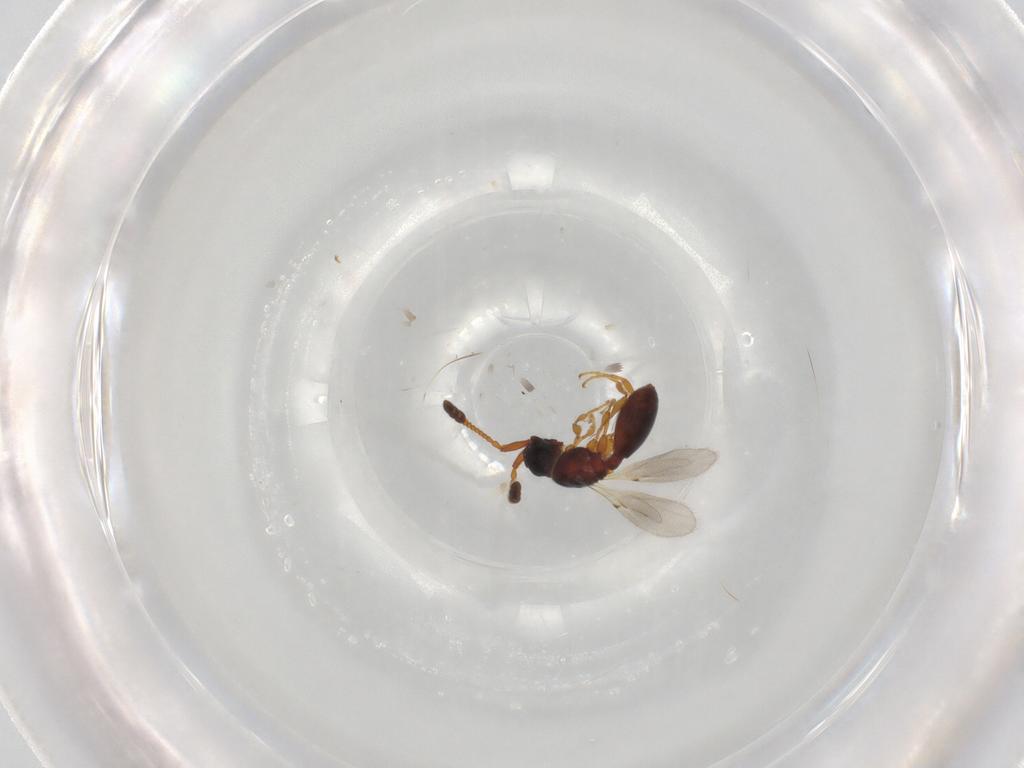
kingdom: Animalia
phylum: Arthropoda
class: Insecta
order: Hymenoptera
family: Diapriidae
